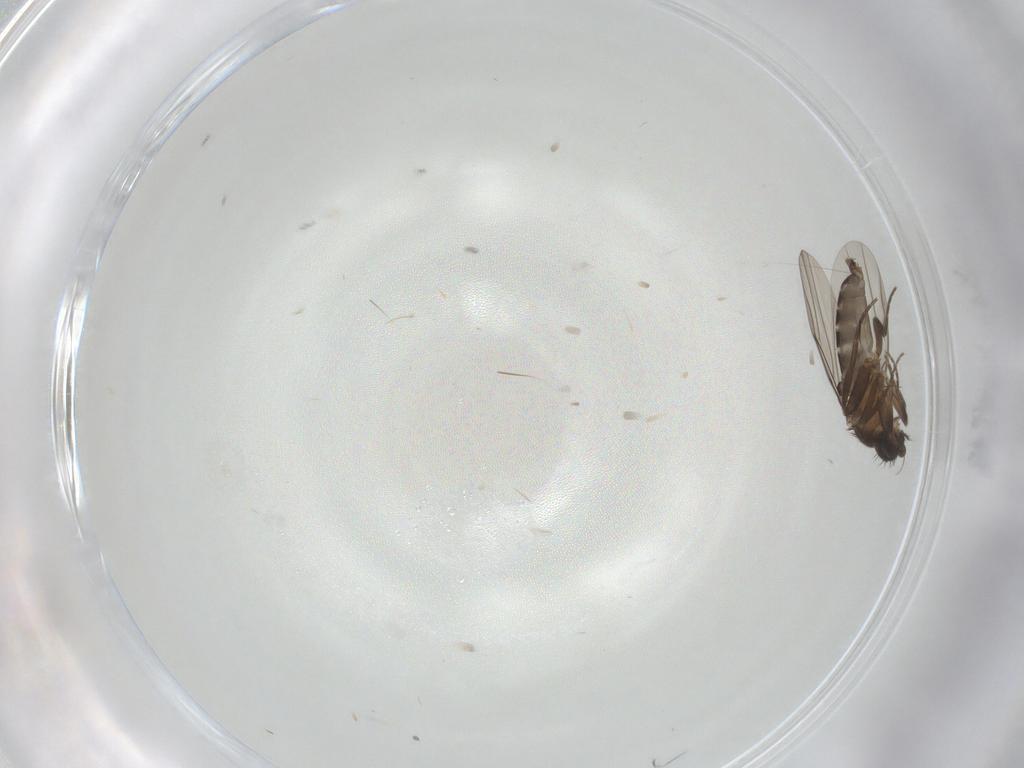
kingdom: Animalia
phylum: Arthropoda
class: Insecta
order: Diptera
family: Phoridae
